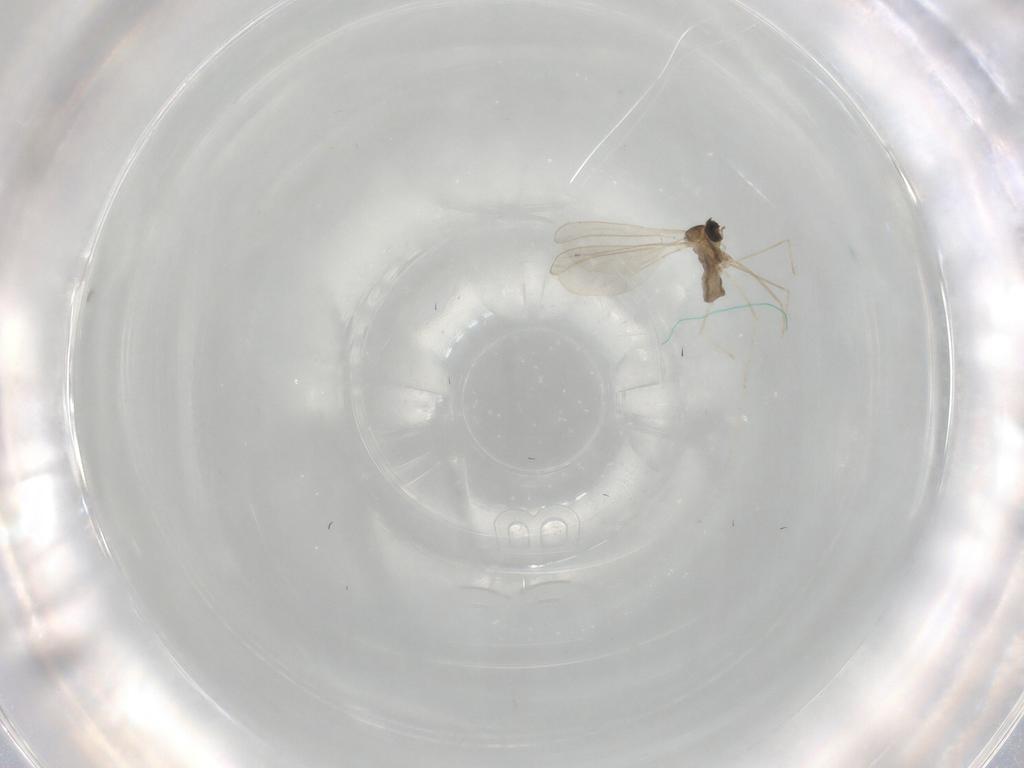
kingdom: Animalia
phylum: Arthropoda
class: Insecta
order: Diptera
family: Cecidomyiidae
